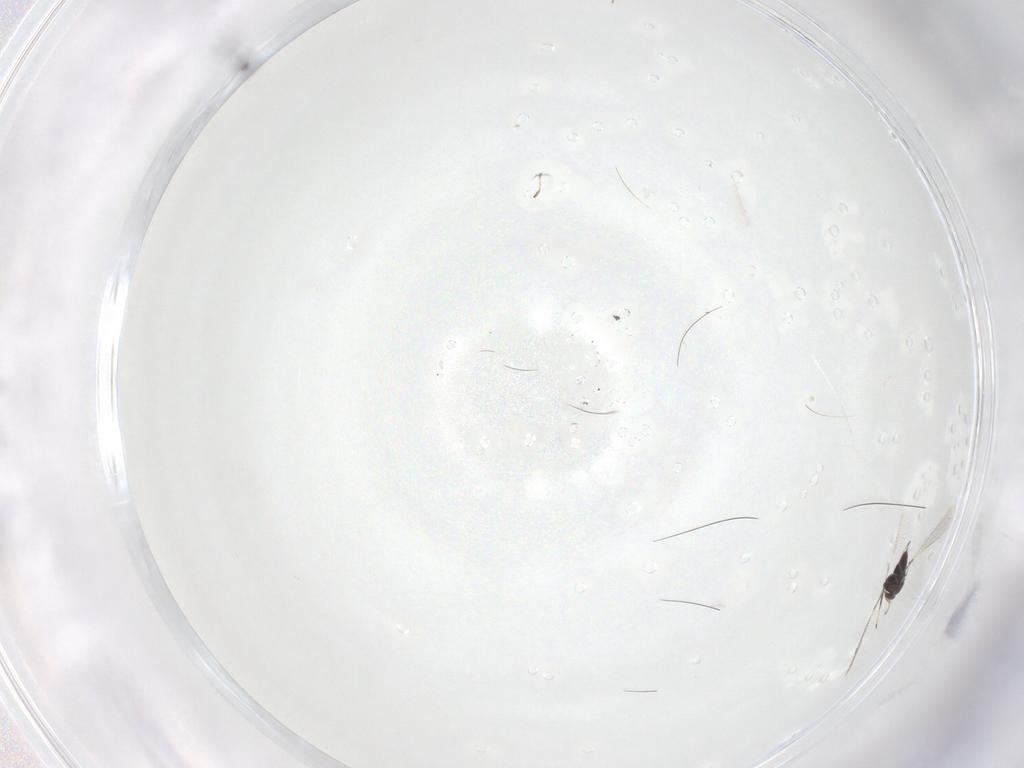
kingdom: Animalia
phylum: Arthropoda
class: Insecta
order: Hymenoptera
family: Mymaridae
